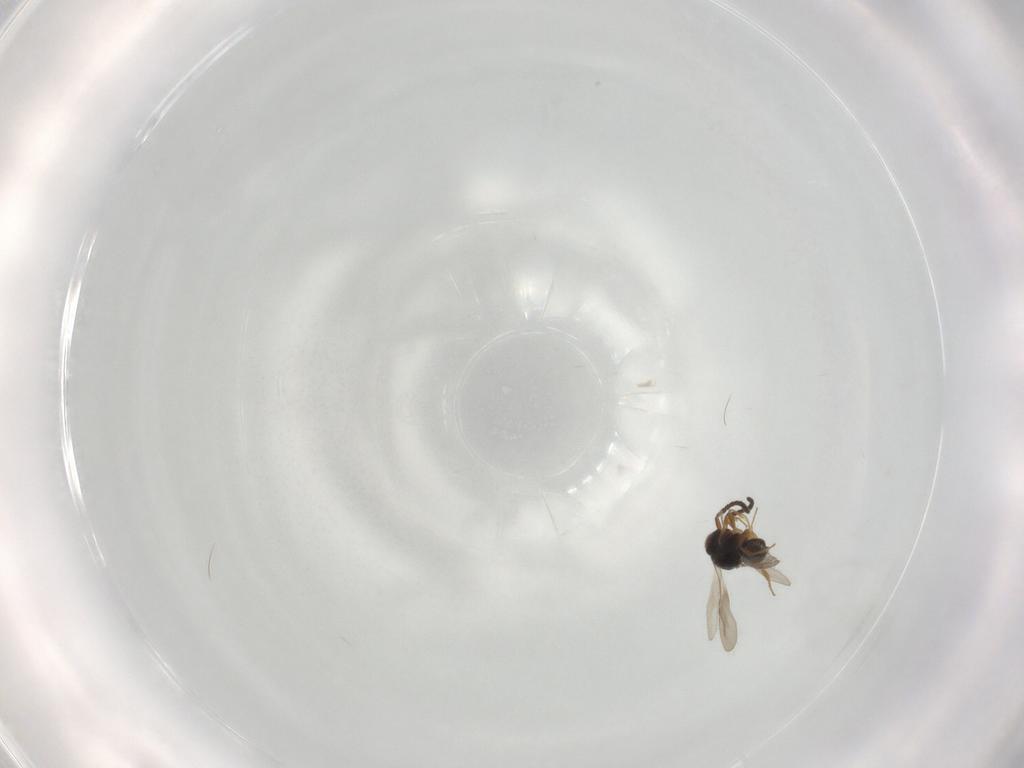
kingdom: Animalia
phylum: Arthropoda
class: Insecta
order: Hymenoptera
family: Ceraphronidae
